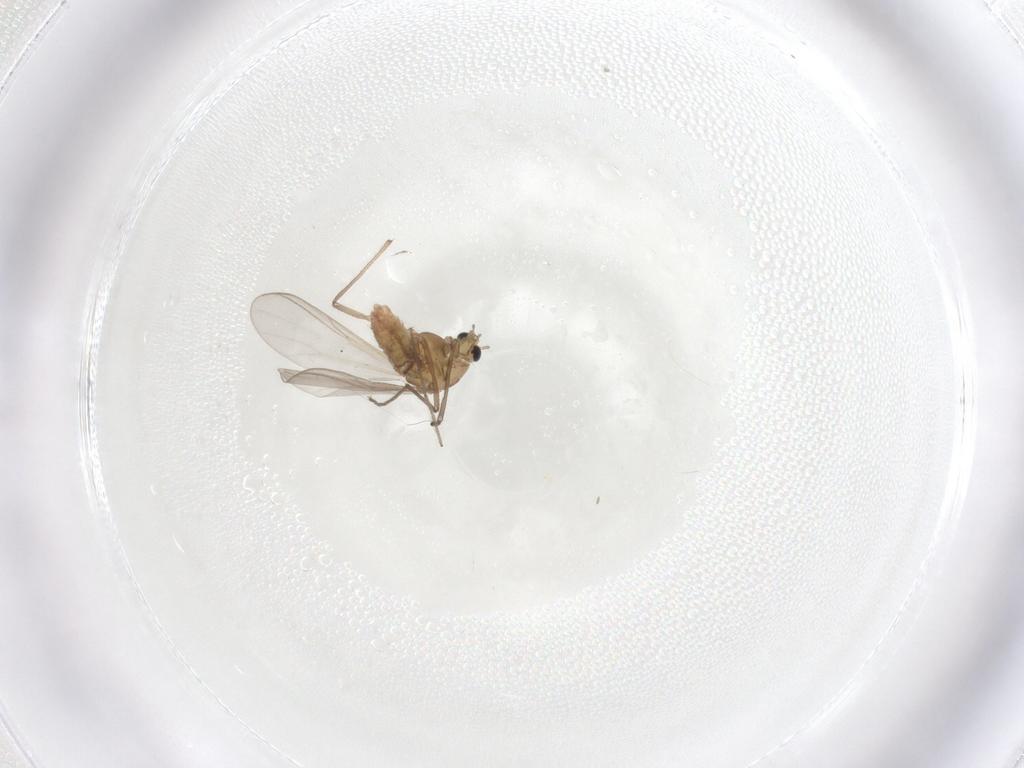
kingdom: Animalia
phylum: Arthropoda
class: Insecta
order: Diptera
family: Chironomidae
